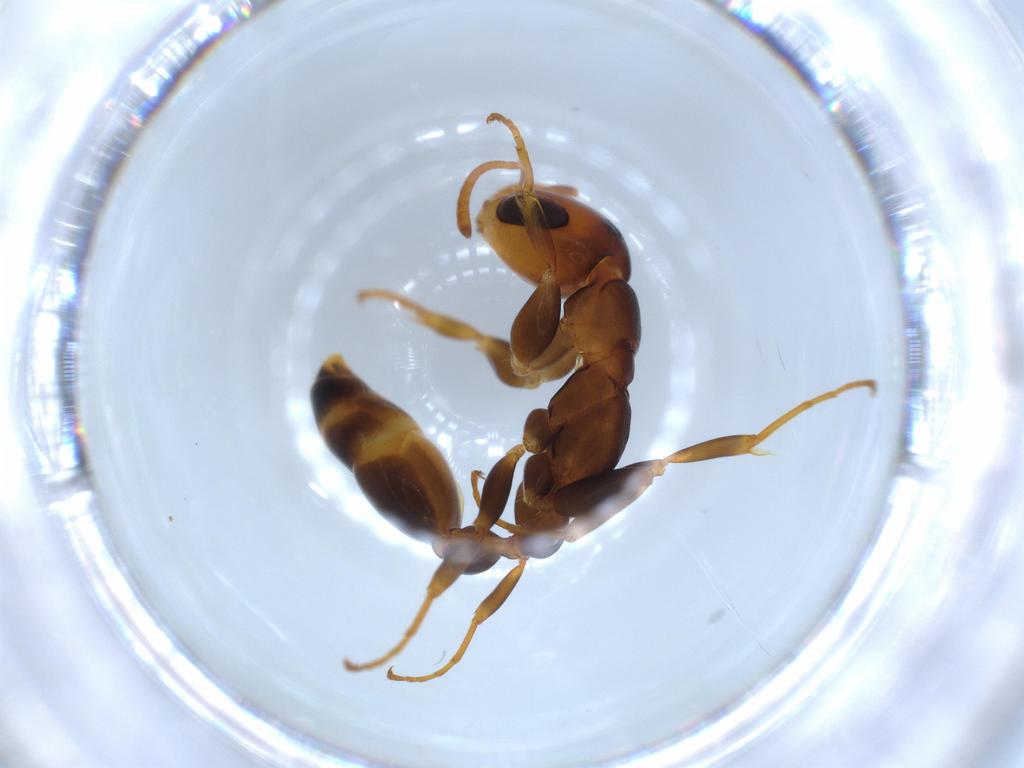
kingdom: Animalia
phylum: Arthropoda
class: Insecta
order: Hymenoptera
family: Formicidae
